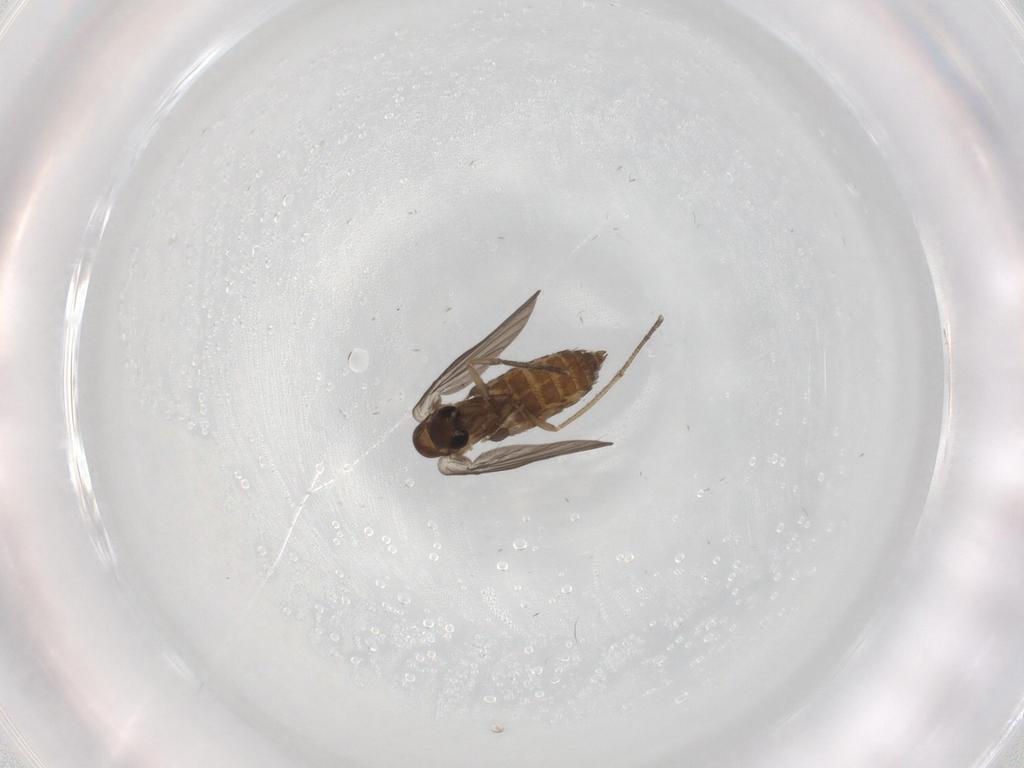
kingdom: Animalia
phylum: Arthropoda
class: Insecta
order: Diptera
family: Psychodidae
